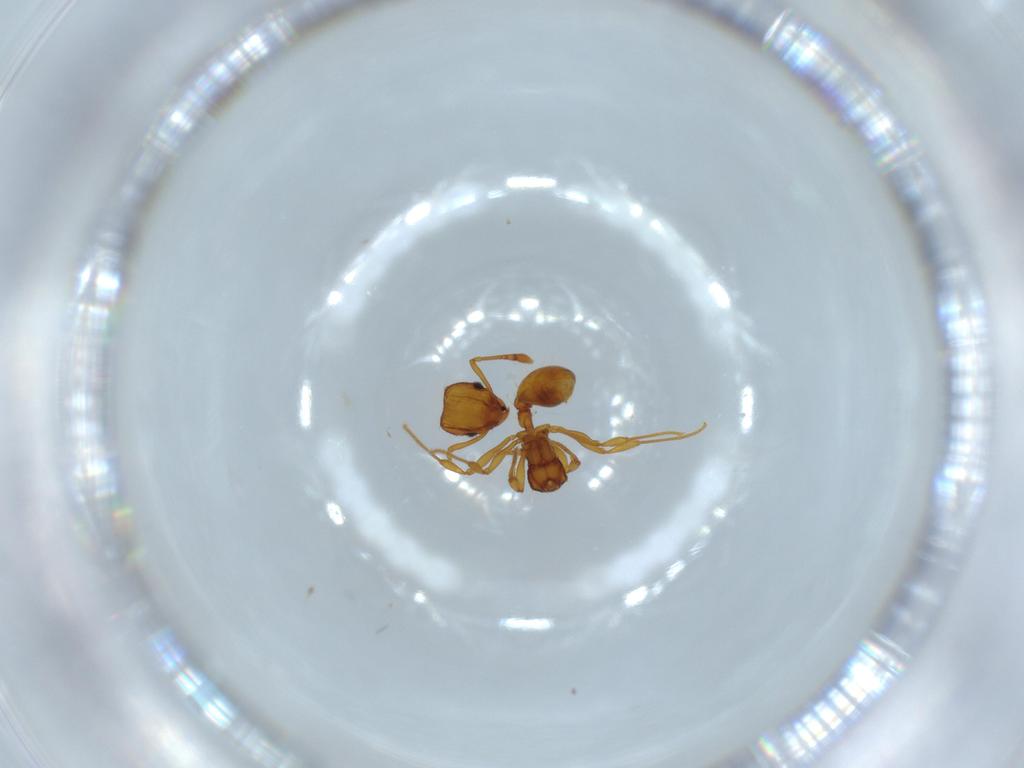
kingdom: Animalia
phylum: Arthropoda
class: Insecta
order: Hymenoptera
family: Formicidae
